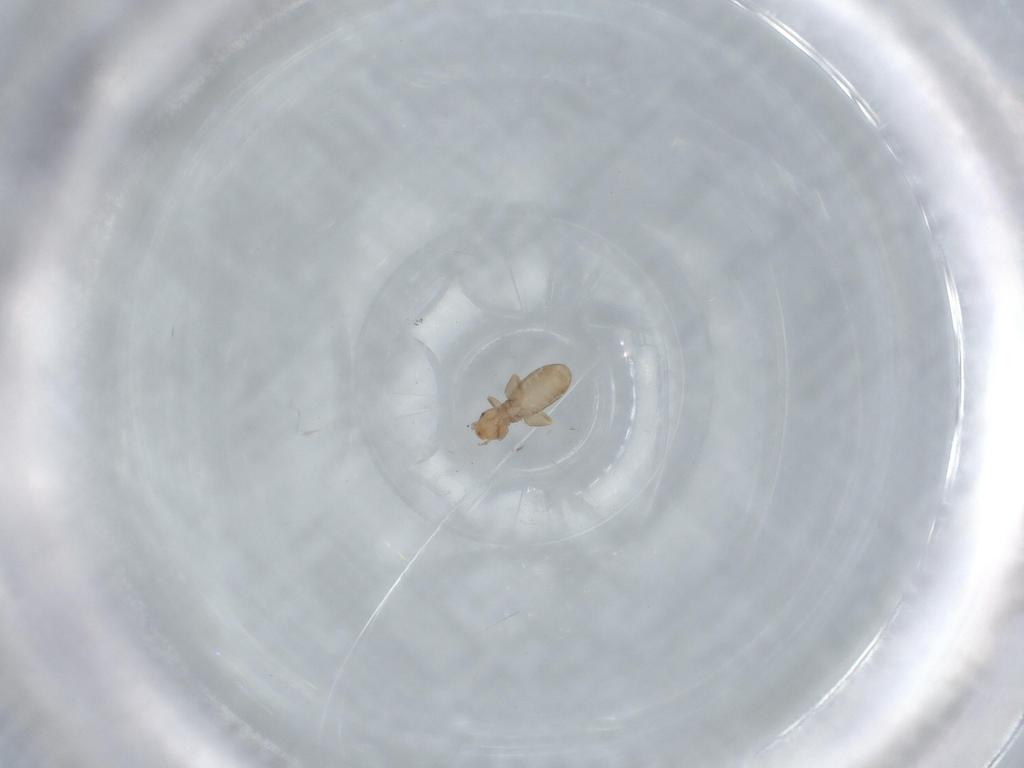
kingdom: Animalia
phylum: Arthropoda
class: Insecta
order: Psocodea
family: Liposcelididae
